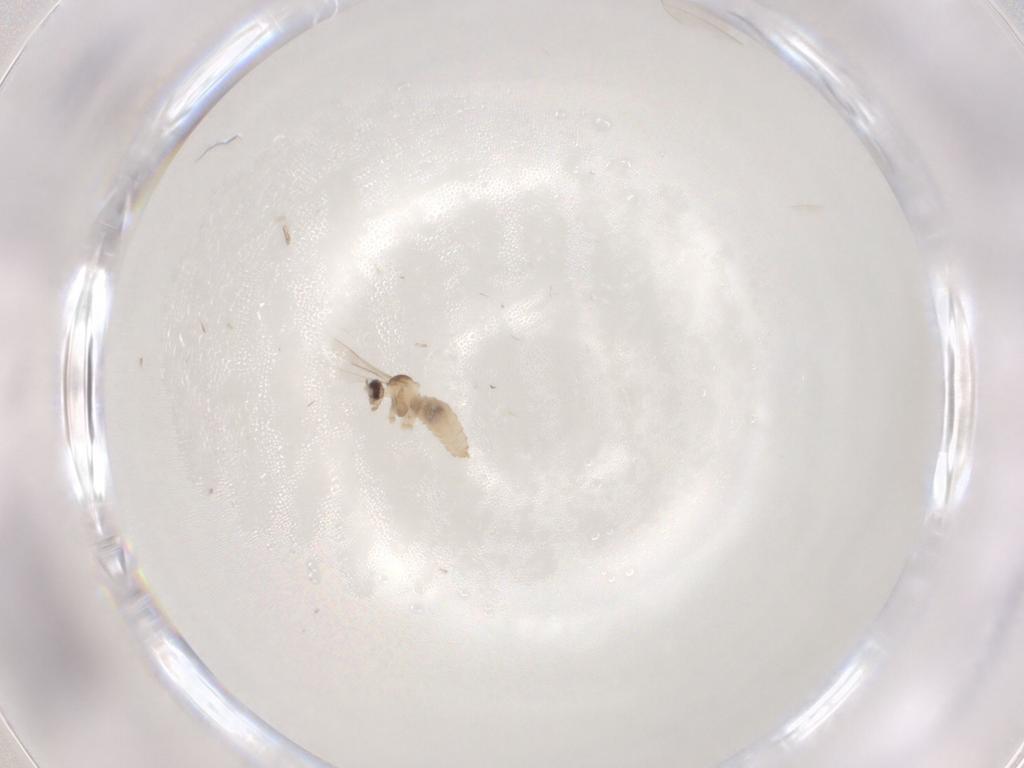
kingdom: Animalia
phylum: Arthropoda
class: Insecta
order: Diptera
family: Cecidomyiidae
